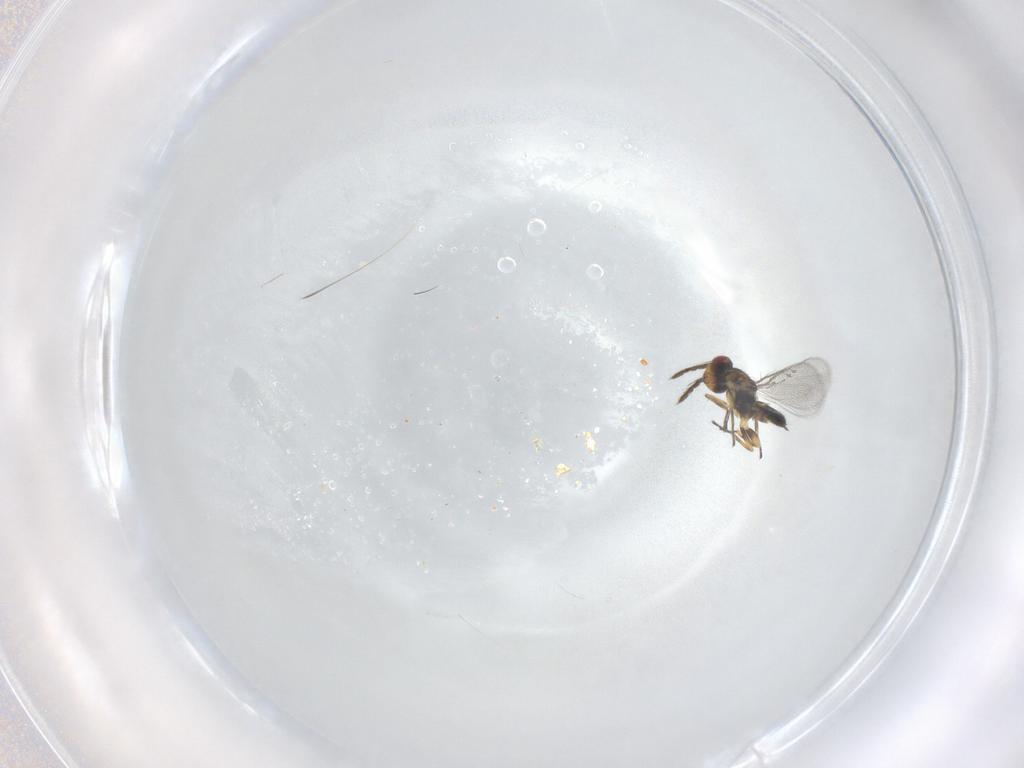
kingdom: Animalia
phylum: Arthropoda
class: Insecta
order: Hymenoptera
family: Eulophidae
